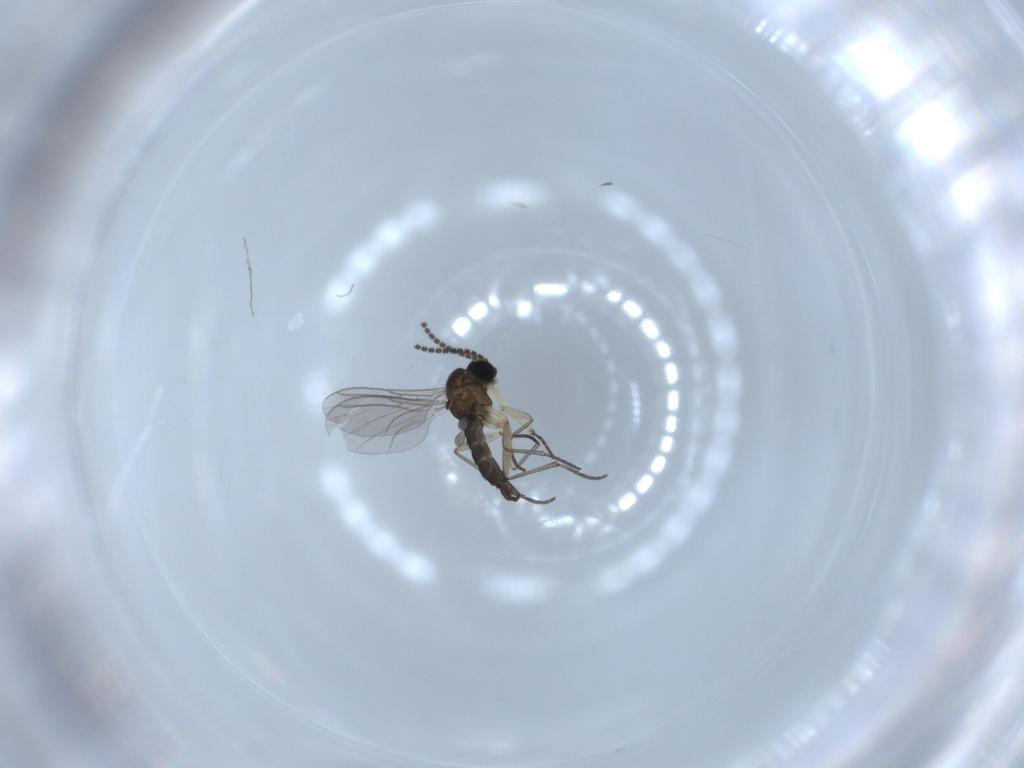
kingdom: Animalia
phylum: Arthropoda
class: Insecta
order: Diptera
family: Sciaridae
